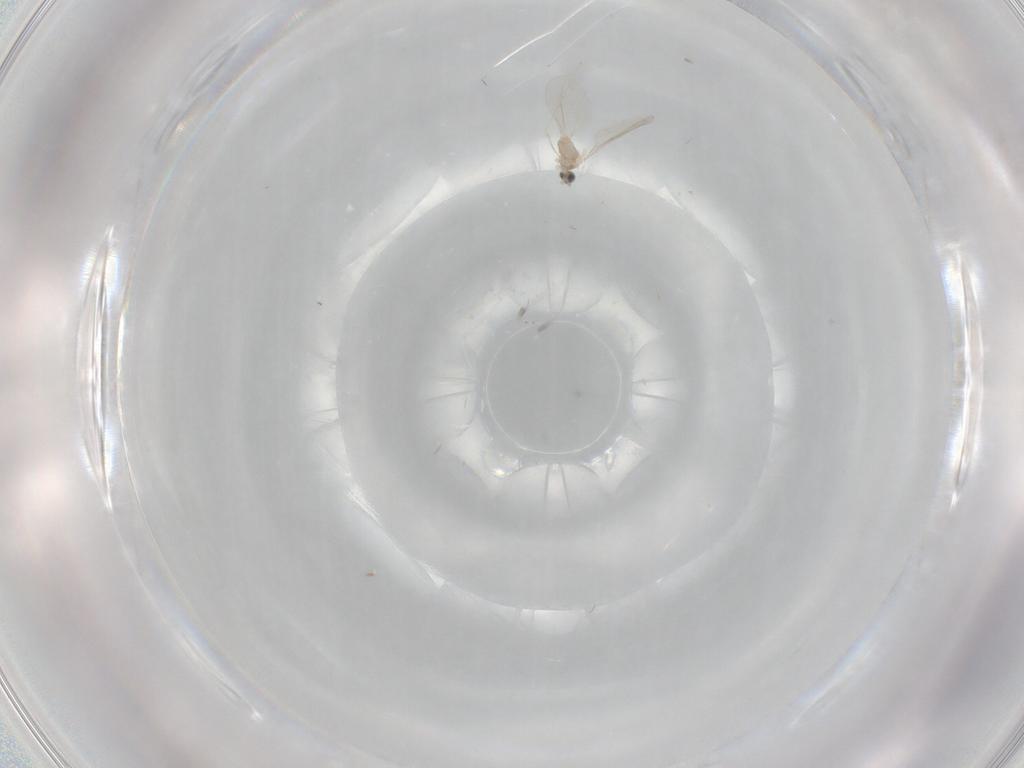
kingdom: Animalia
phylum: Arthropoda
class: Insecta
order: Diptera
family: Cecidomyiidae
